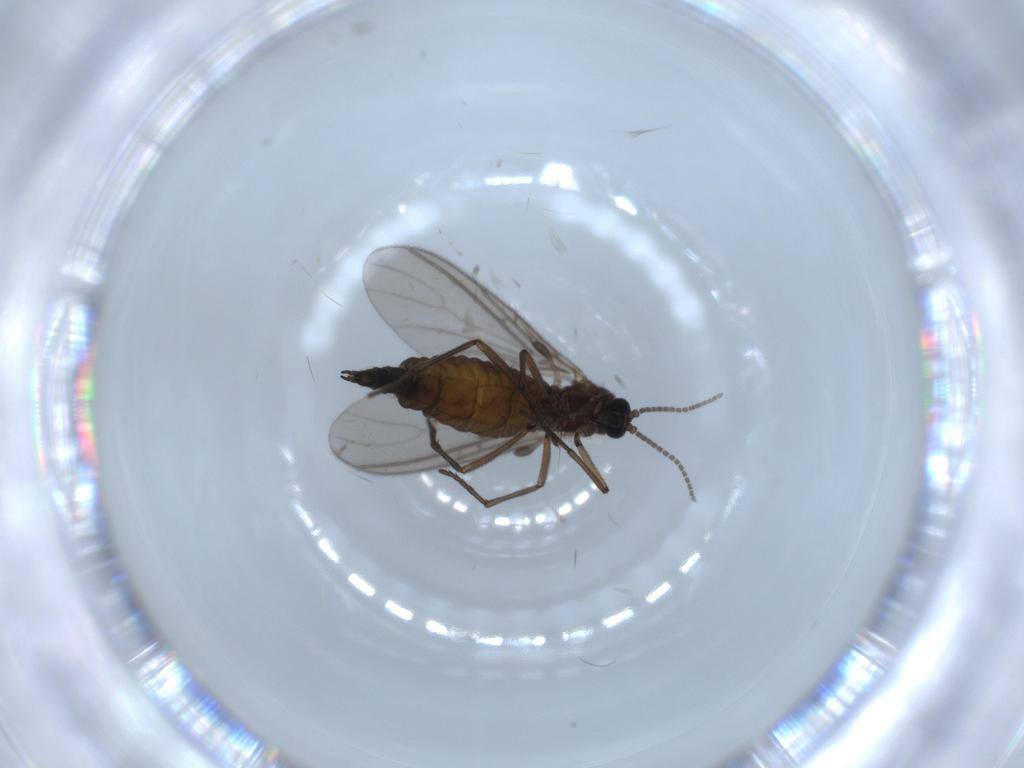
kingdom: Animalia
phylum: Arthropoda
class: Insecta
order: Diptera
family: Sciaridae
